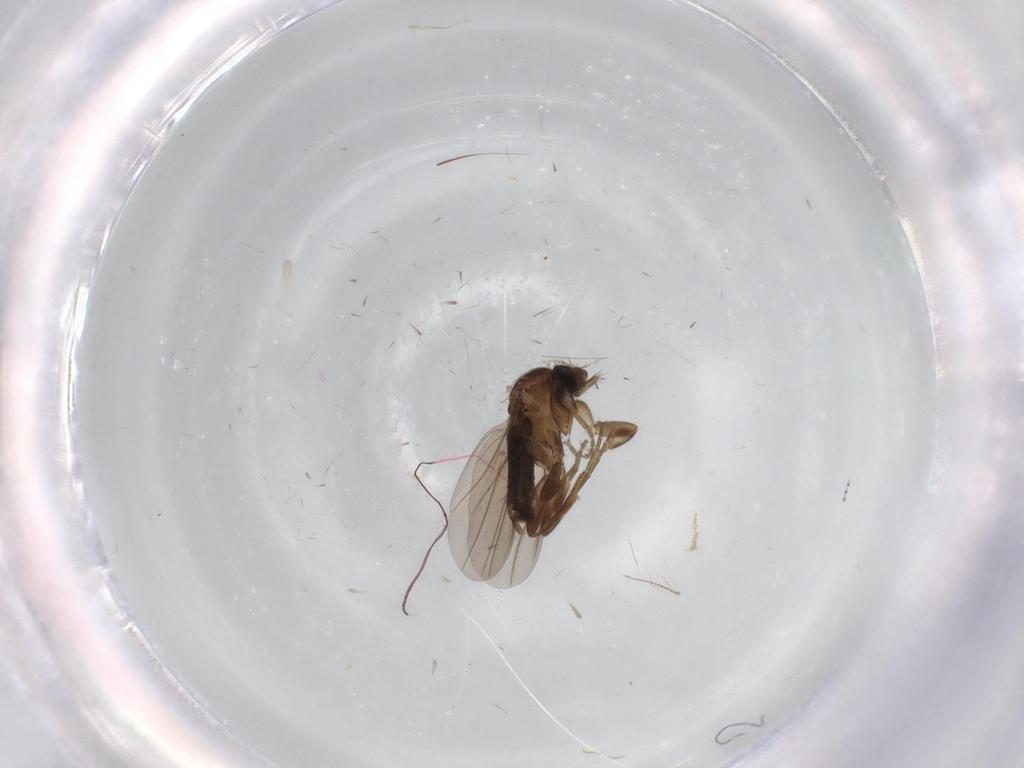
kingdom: Animalia
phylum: Arthropoda
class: Insecta
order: Diptera
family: Cecidomyiidae
